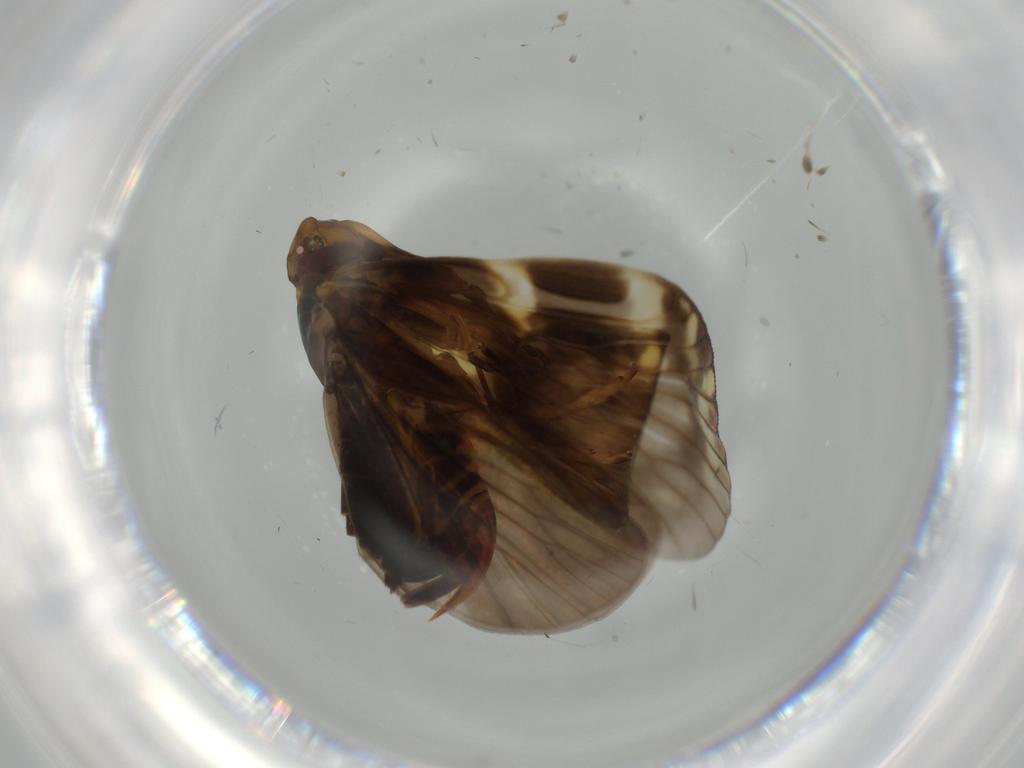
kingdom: Animalia
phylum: Arthropoda
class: Insecta
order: Hemiptera
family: Cixiidae
